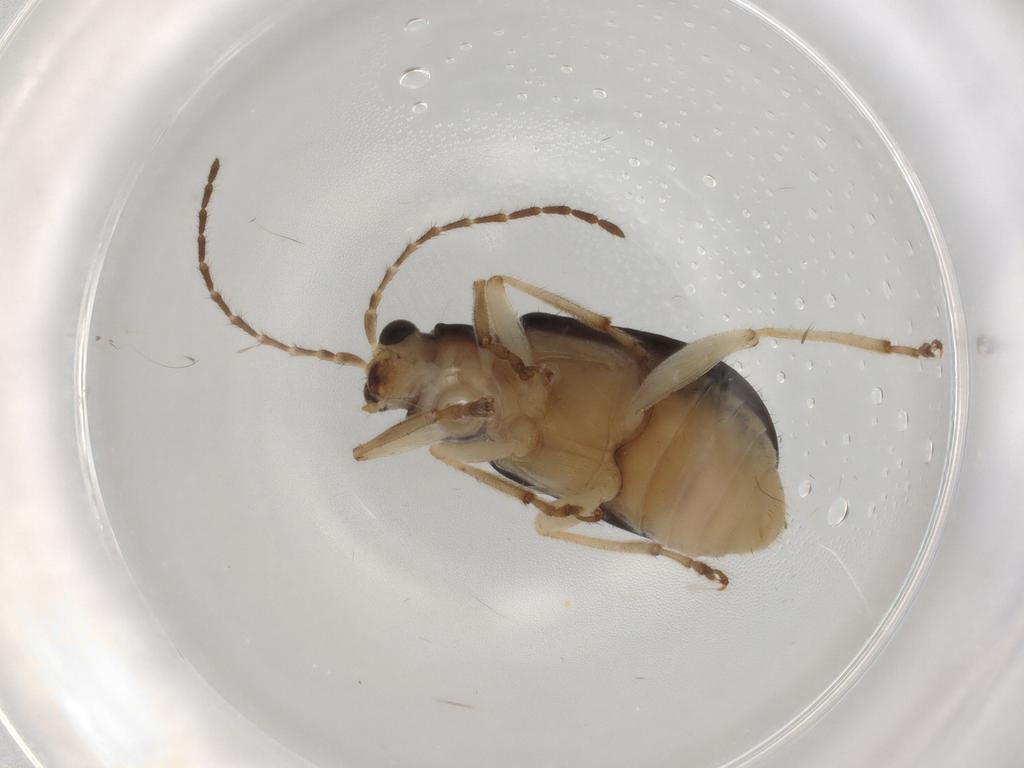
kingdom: Animalia
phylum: Arthropoda
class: Insecta
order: Coleoptera
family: Chrysomelidae
